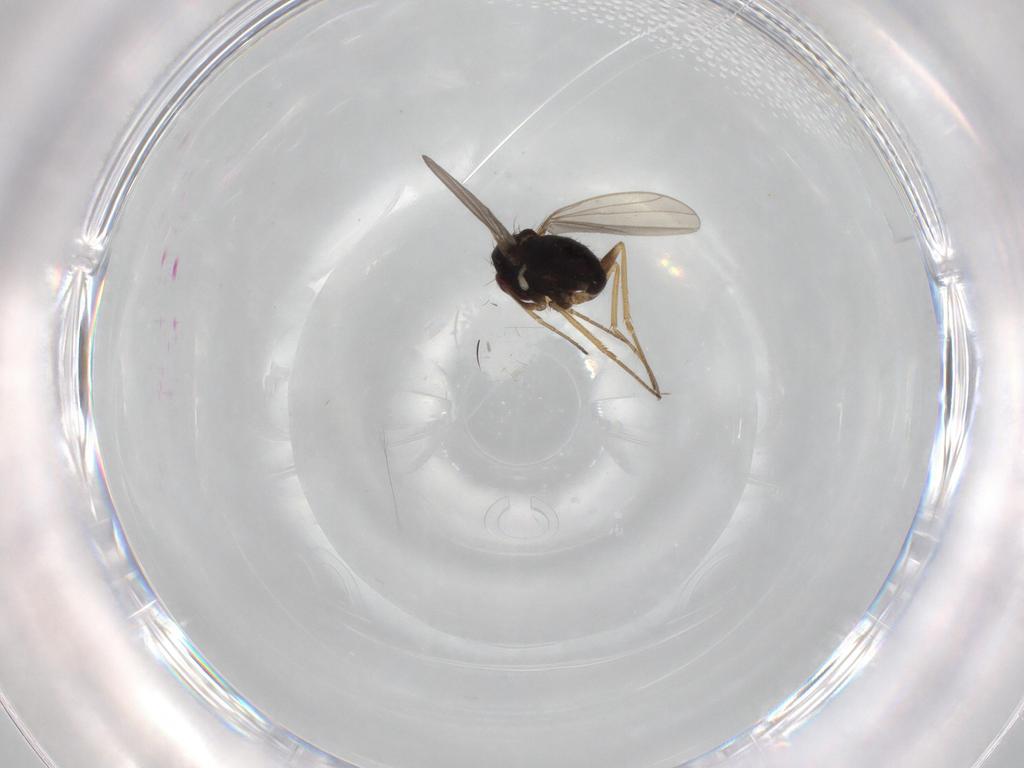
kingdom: Animalia
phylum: Arthropoda
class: Insecta
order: Diptera
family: Dolichopodidae
